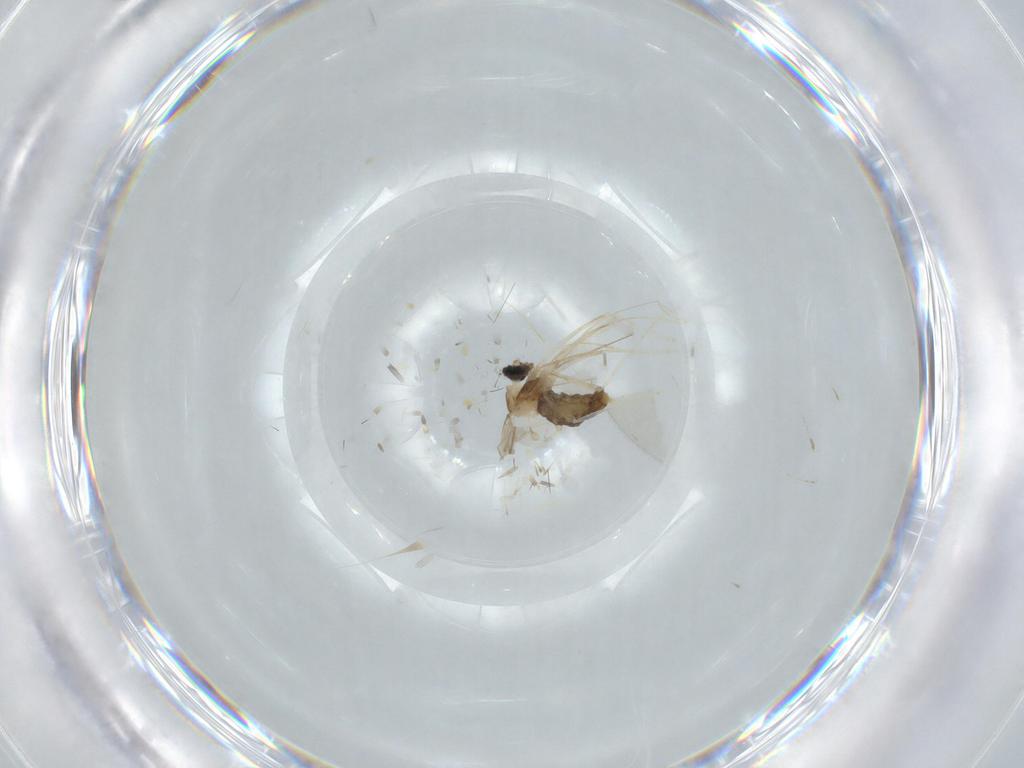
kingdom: Animalia
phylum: Arthropoda
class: Insecta
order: Diptera
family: Cecidomyiidae
